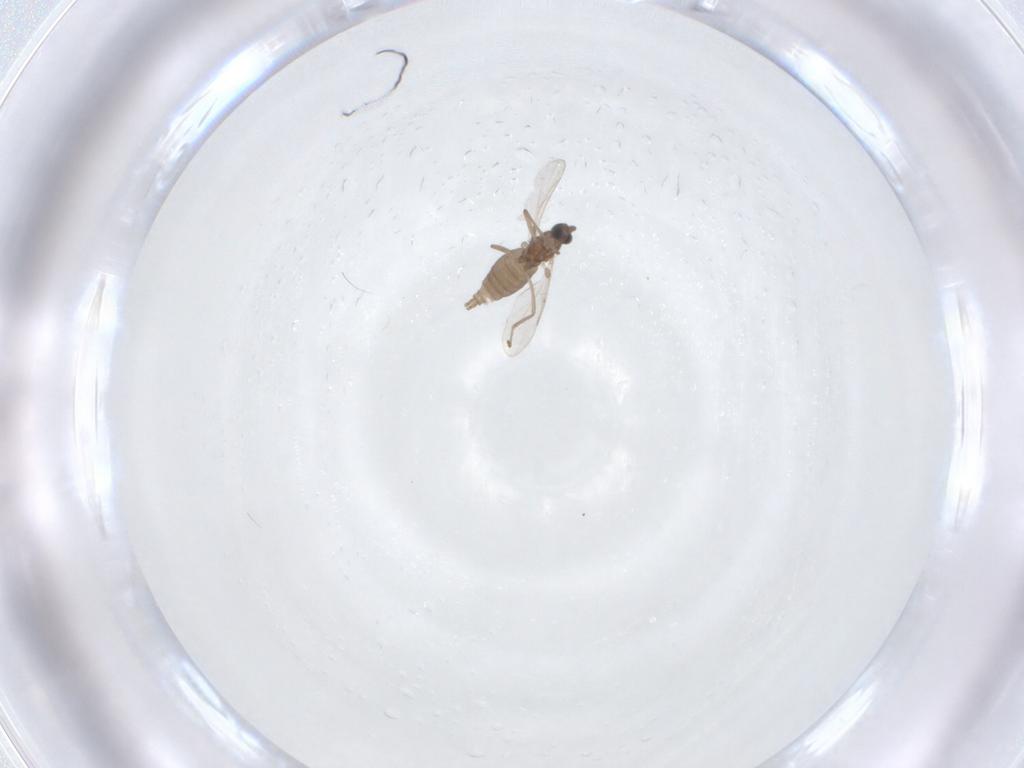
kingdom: Animalia
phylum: Arthropoda
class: Insecta
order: Diptera
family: Cecidomyiidae
